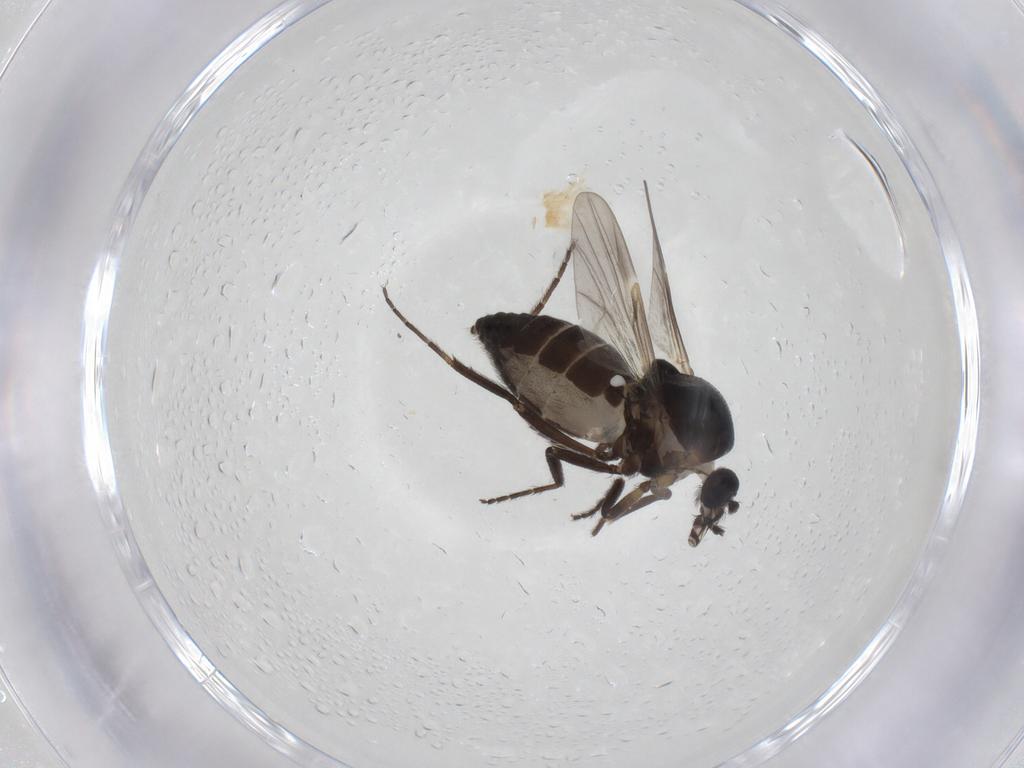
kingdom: Animalia
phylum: Arthropoda
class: Insecta
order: Diptera
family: Ceratopogonidae
